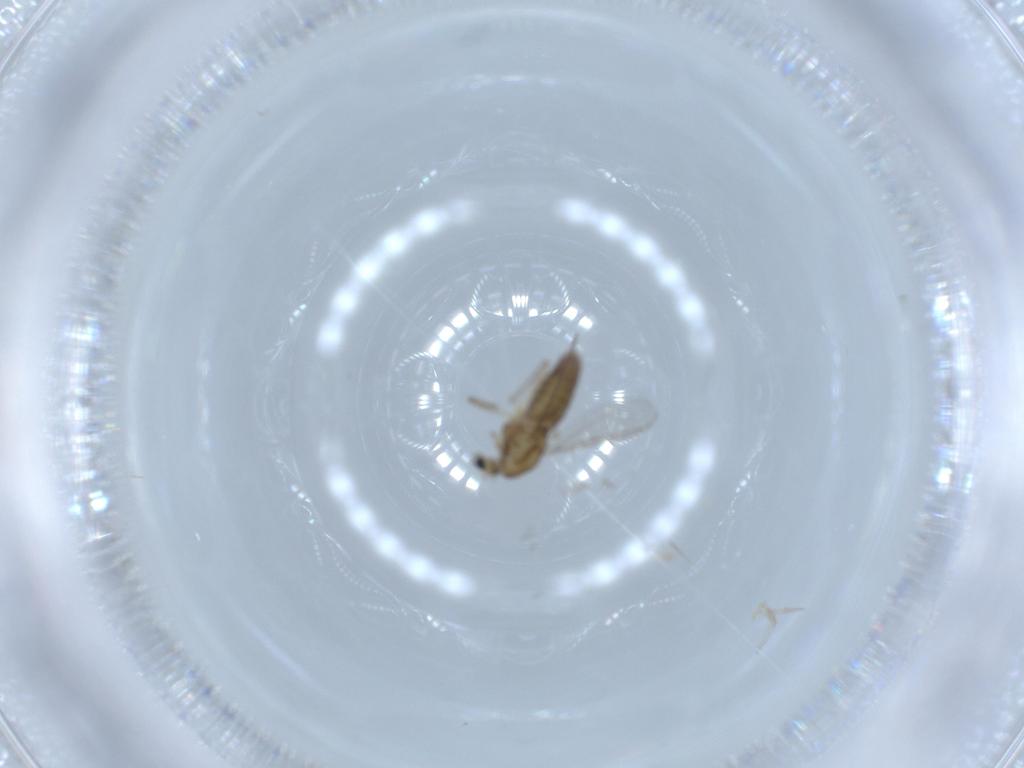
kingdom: Animalia
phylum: Arthropoda
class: Insecta
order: Diptera
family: Chironomidae
